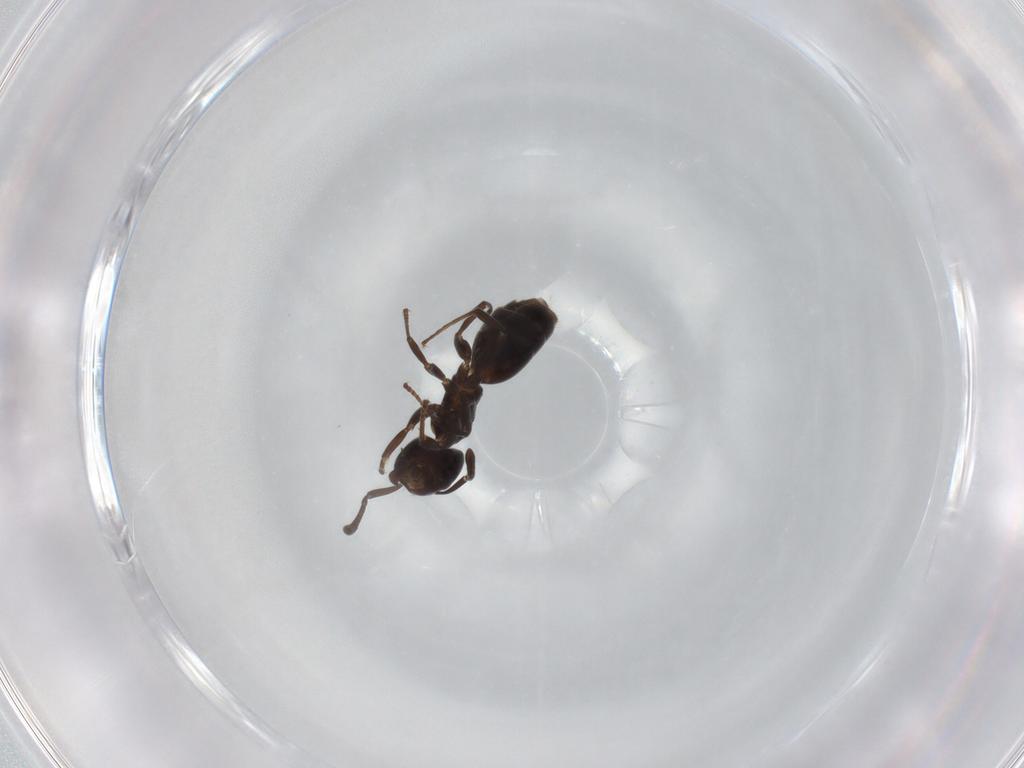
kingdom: Animalia
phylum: Arthropoda
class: Insecta
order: Hymenoptera
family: Formicidae
